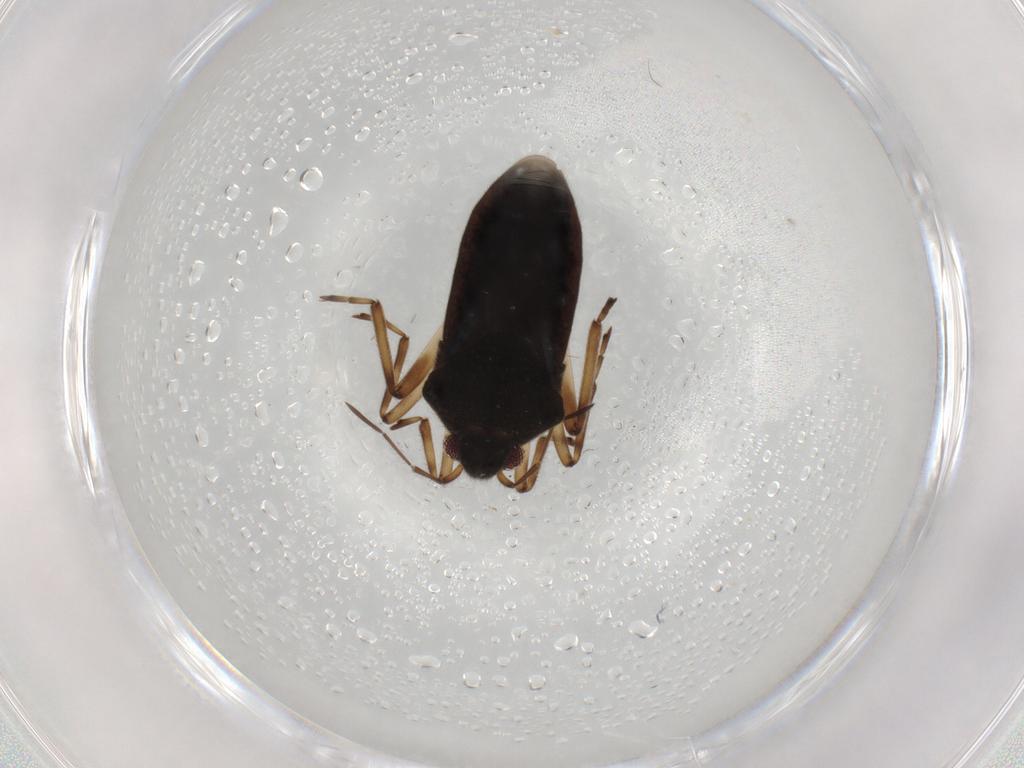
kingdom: Animalia
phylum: Arthropoda
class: Insecta
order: Hemiptera
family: Veliidae
